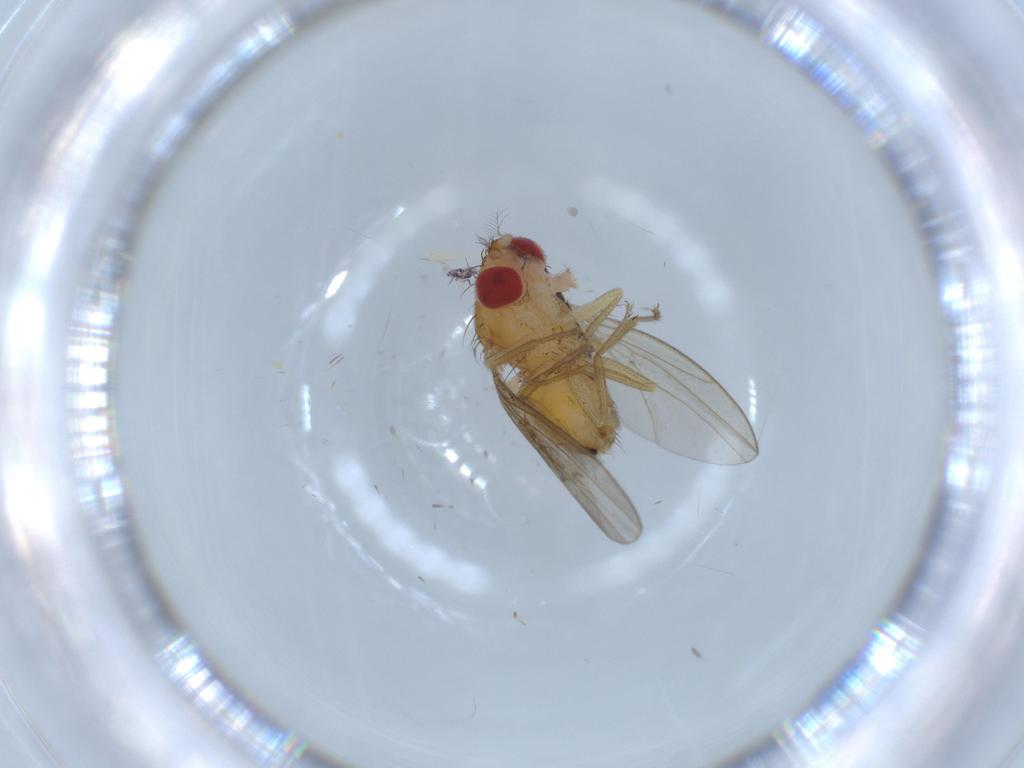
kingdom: Animalia
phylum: Arthropoda
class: Insecta
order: Diptera
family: Drosophilidae
